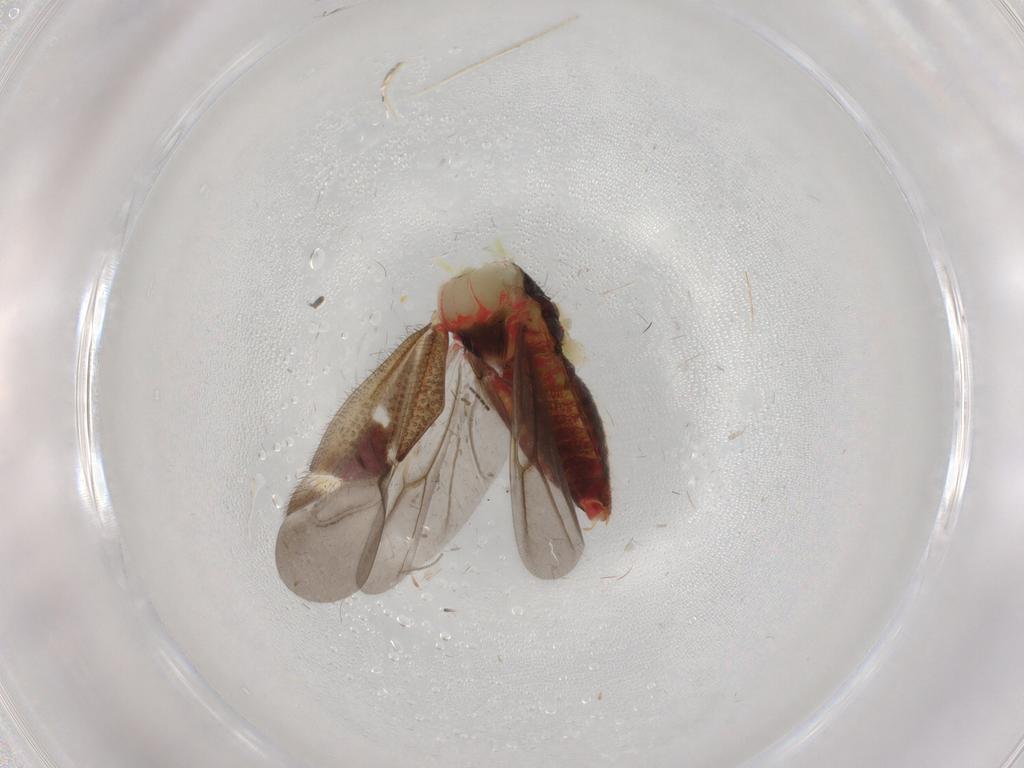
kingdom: Animalia
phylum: Arthropoda
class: Insecta
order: Hemiptera
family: Miridae
